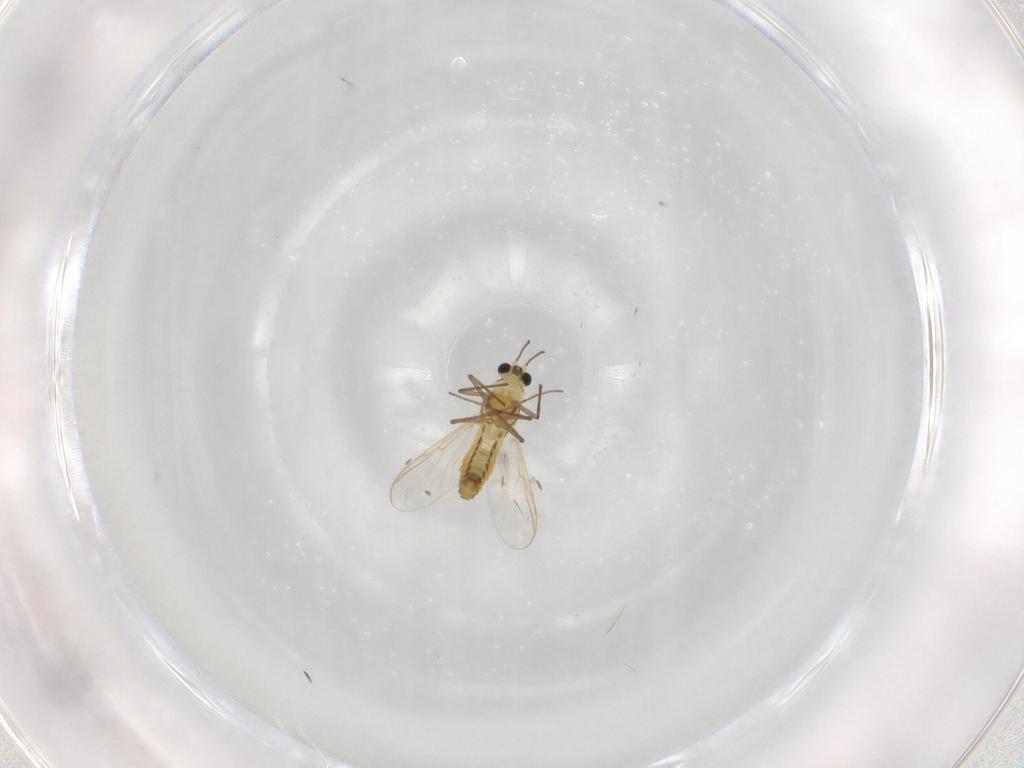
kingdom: Animalia
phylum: Arthropoda
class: Insecta
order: Diptera
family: Chironomidae
